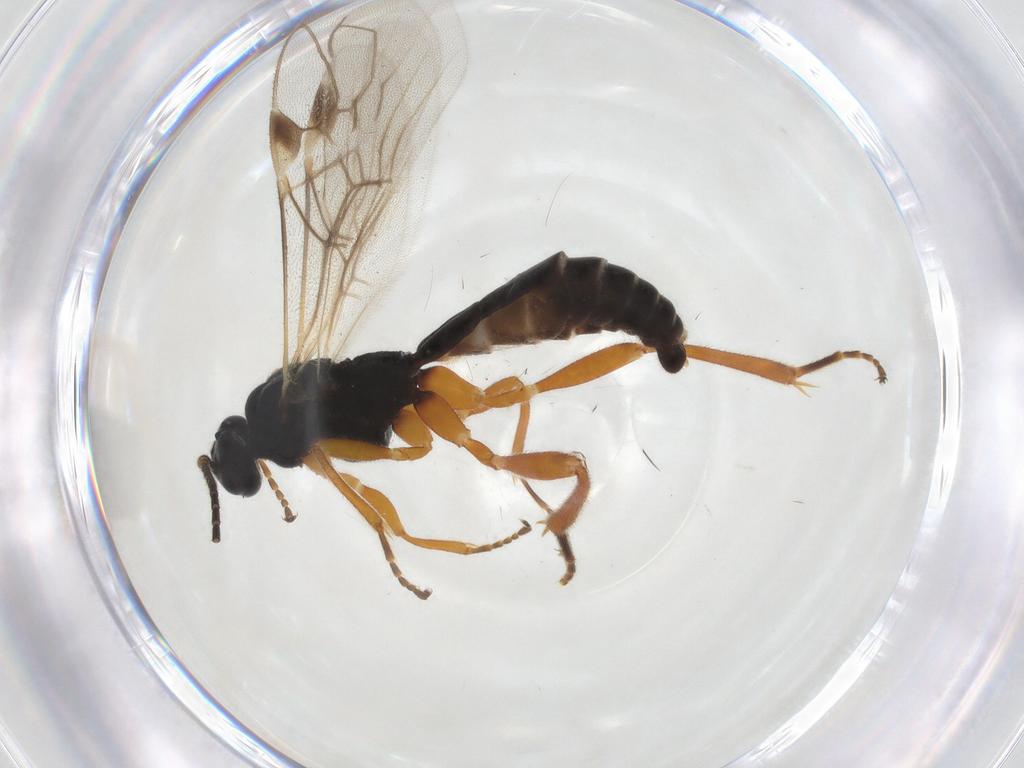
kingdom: Animalia
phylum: Arthropoda
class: Insecta
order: Hymenoptera
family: Braconidae
